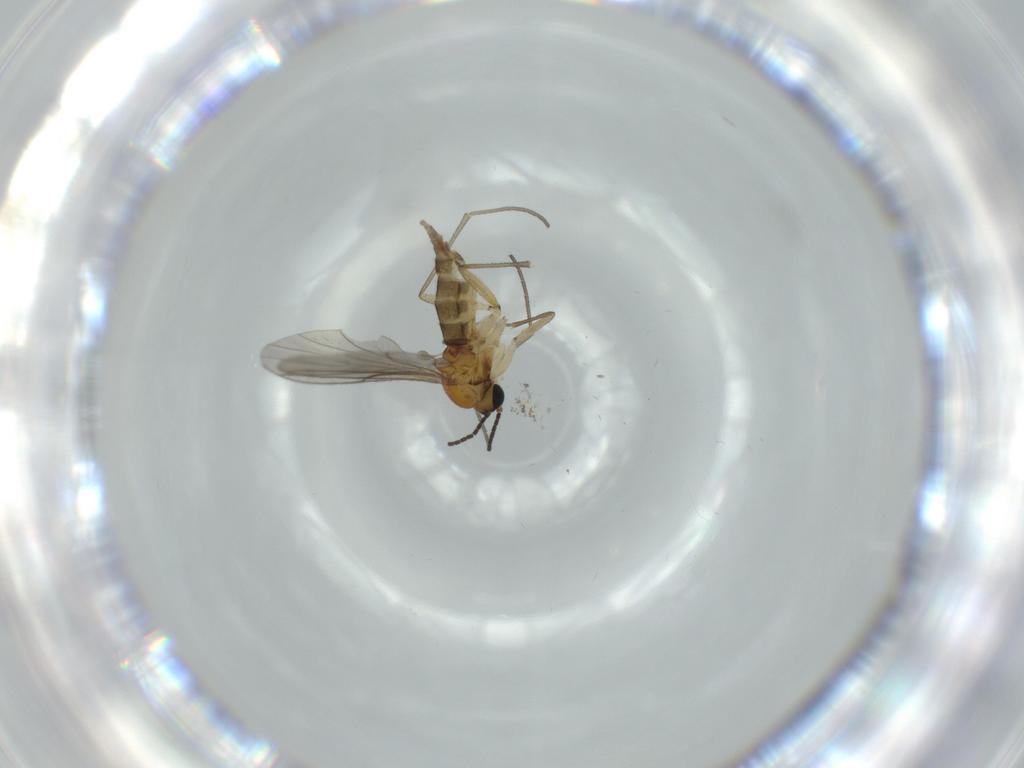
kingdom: Animalia
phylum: Arthropoda
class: Insecta
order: Diptera
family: Sciaridae
